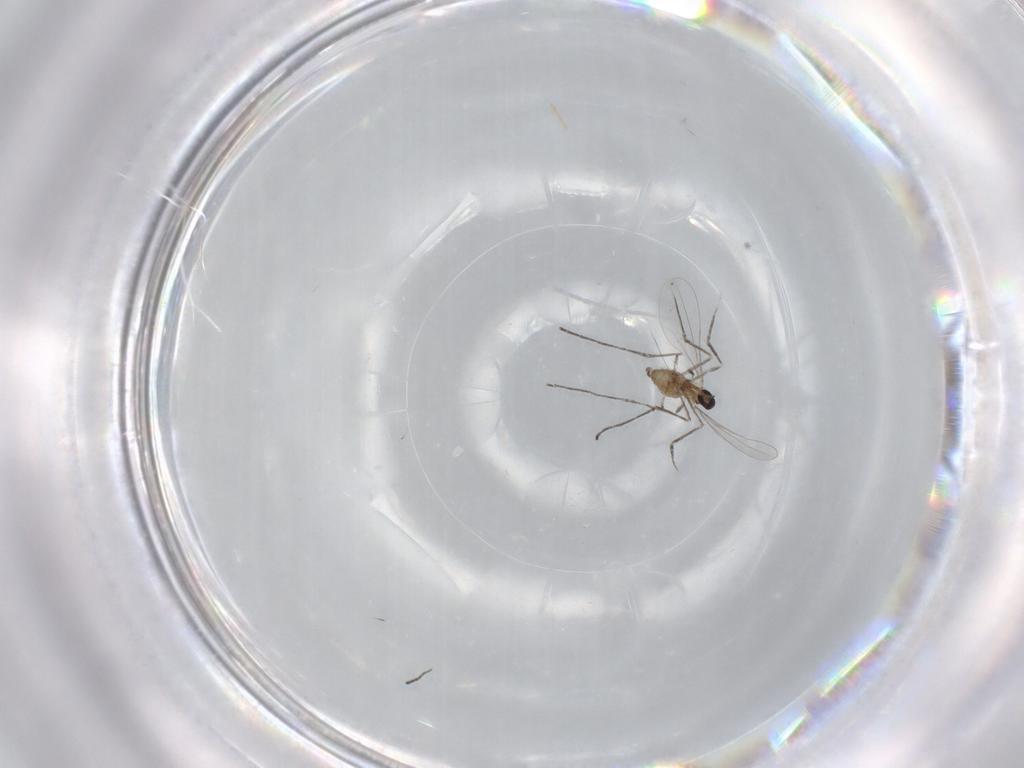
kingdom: Animalia
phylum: Arthropoda
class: Insecta
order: Diptera
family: Cecidomyiidae
